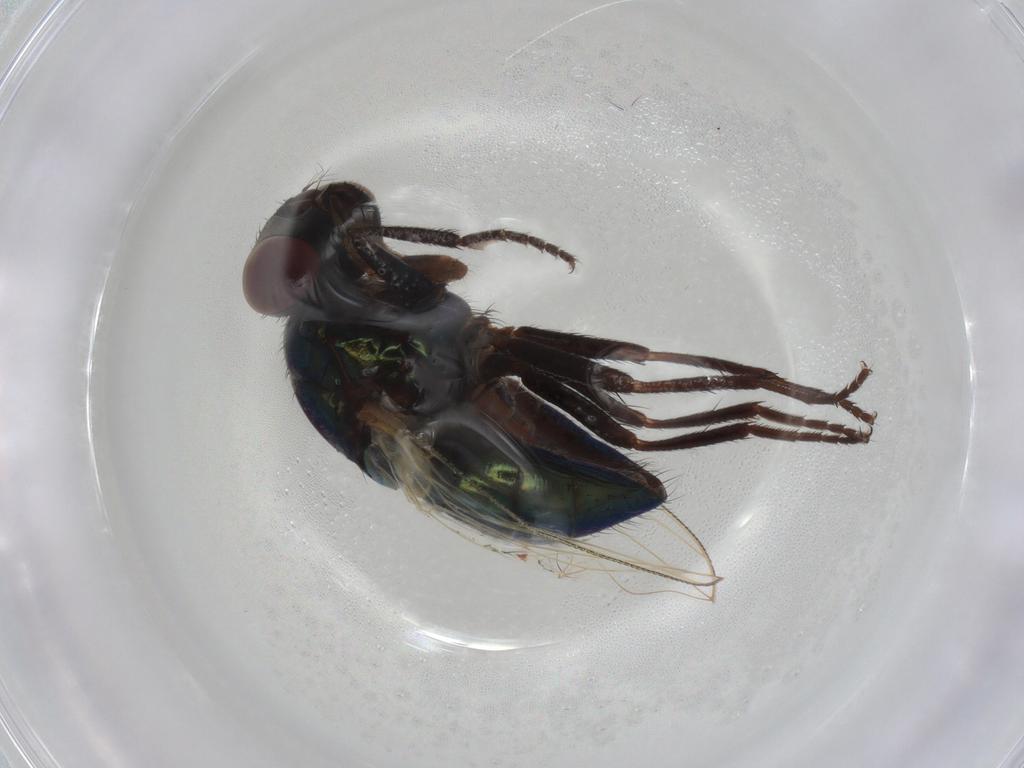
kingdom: Animalia
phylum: Arthropoda
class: Insecta
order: Diptera
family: Muscidae
